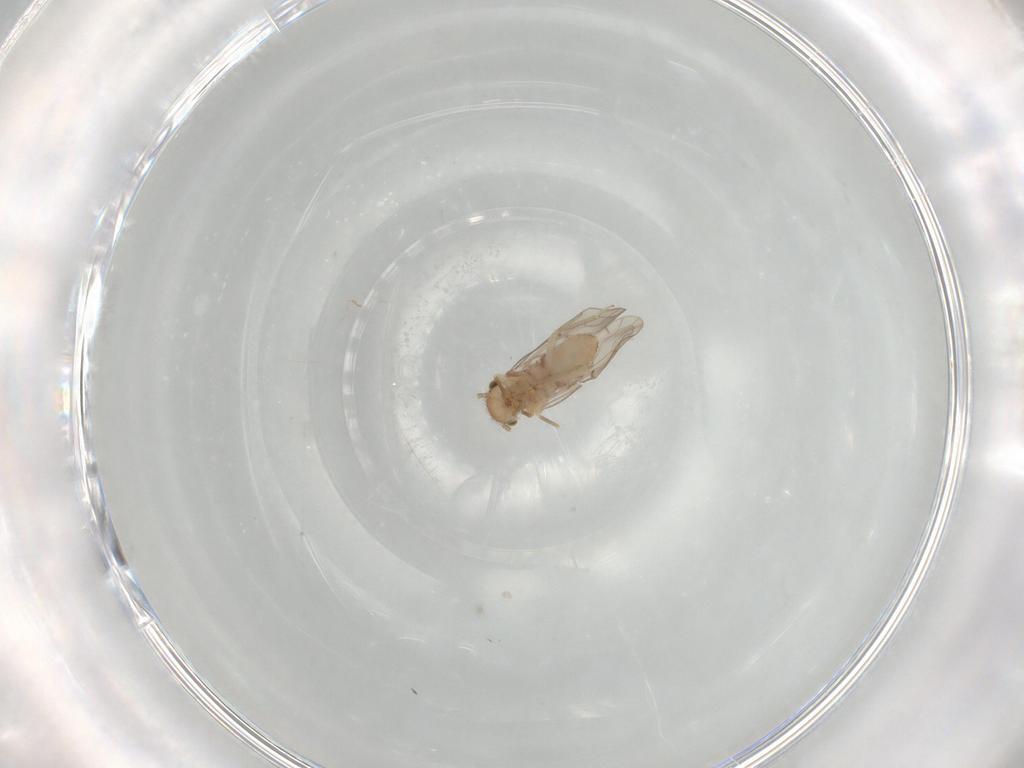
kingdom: Animalia
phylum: Arthropoda
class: Insecta
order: Psocodea
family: Ectopsocidae
